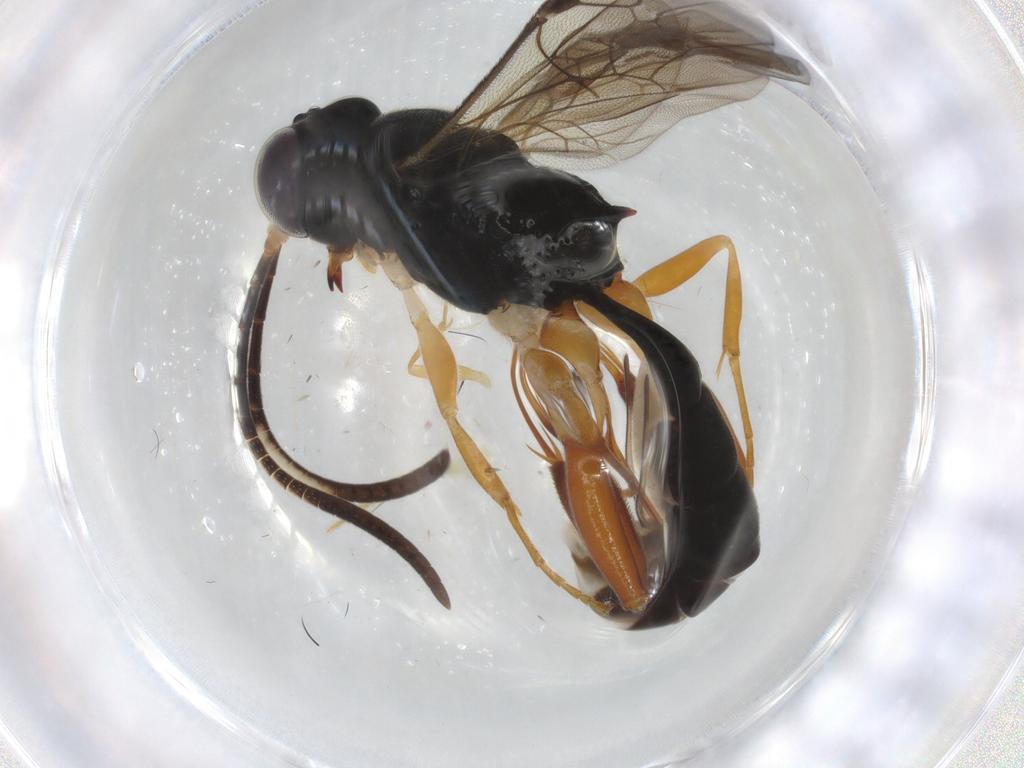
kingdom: Animalia
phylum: Arthropoda
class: Insecta
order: Hymenoptera
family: Ichneumonidae
